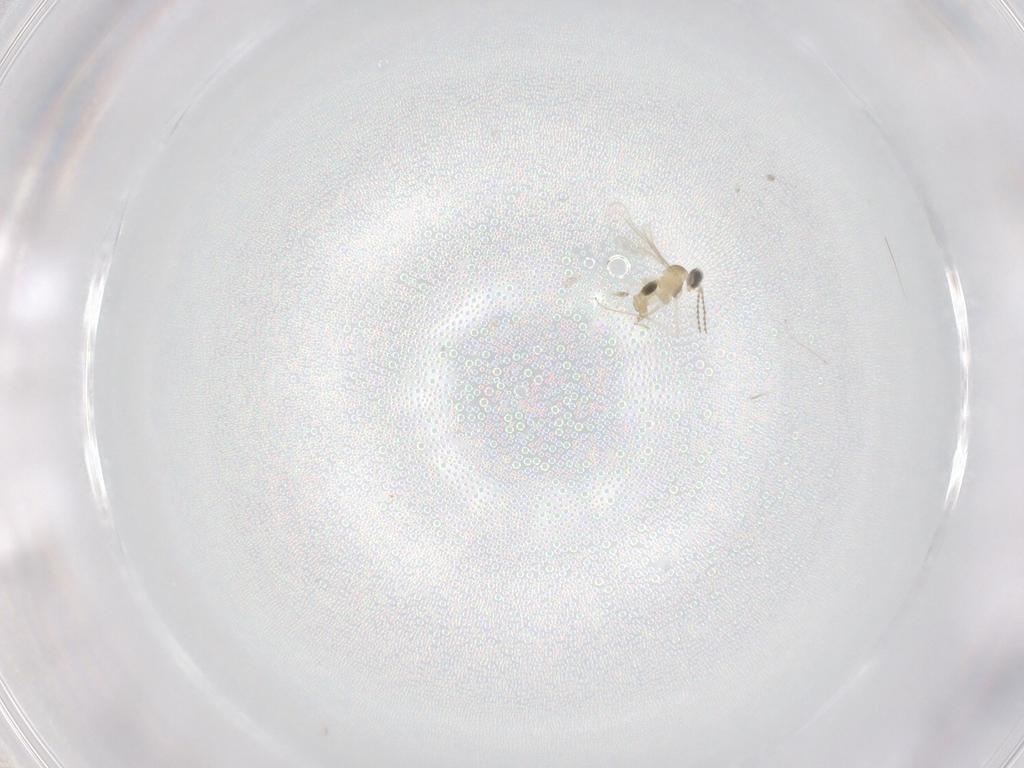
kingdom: Animalia
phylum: Arthropoda
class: Insecta
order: Diptera
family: Cecidomyiidae
